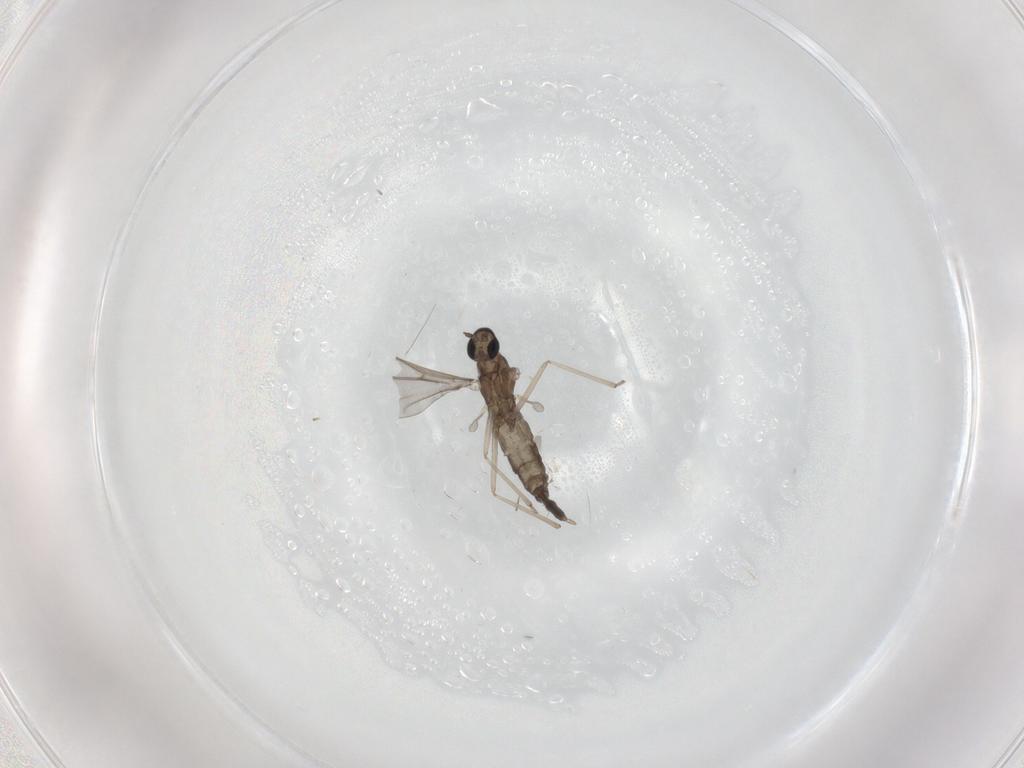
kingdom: Animalia
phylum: Arthropoda
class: Insecta
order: Diptera
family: Chironomidae
